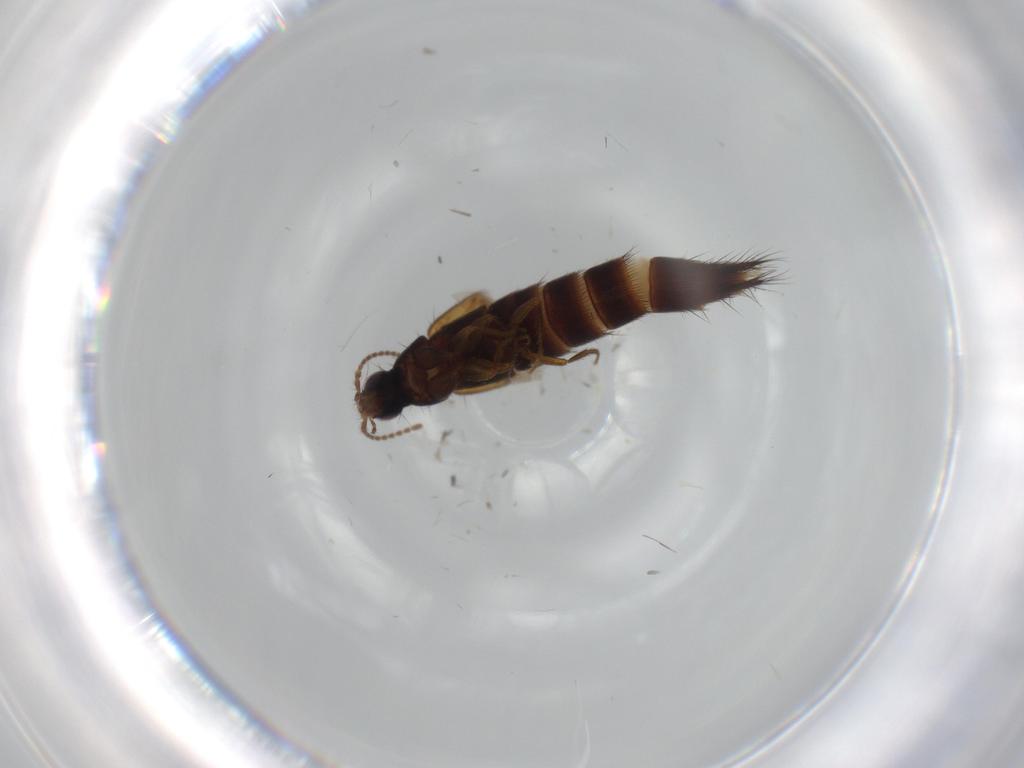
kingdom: Animalia
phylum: Arthropoda
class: Insecta
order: Coleoptera
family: Staphylinidae
